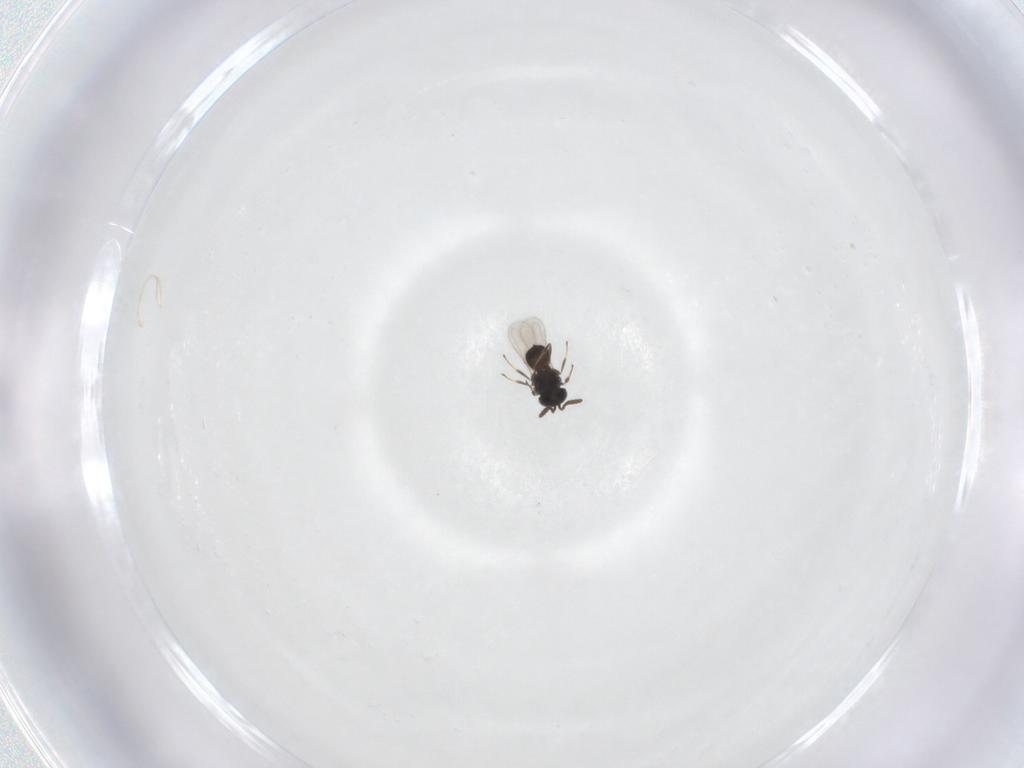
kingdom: Animalia
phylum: Arthropoda
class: Insecta
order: Hymenoptera
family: Scelionidae
